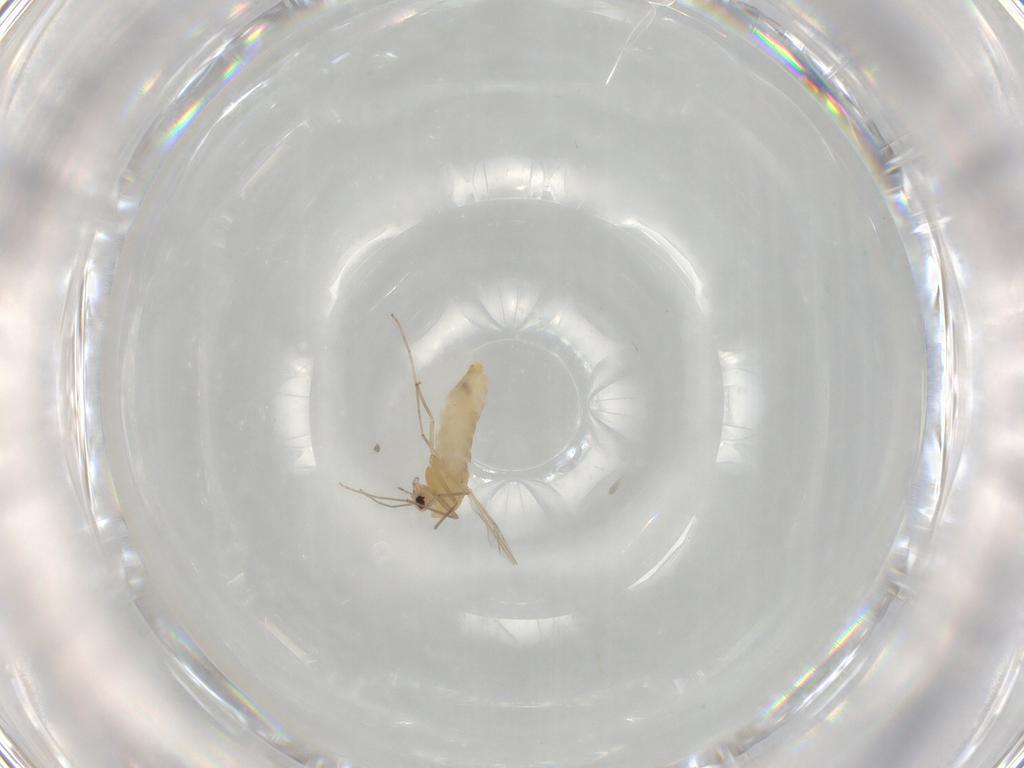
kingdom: Animalia
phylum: Arthropoda
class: Insecta
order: Diptera
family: Chironomidae
